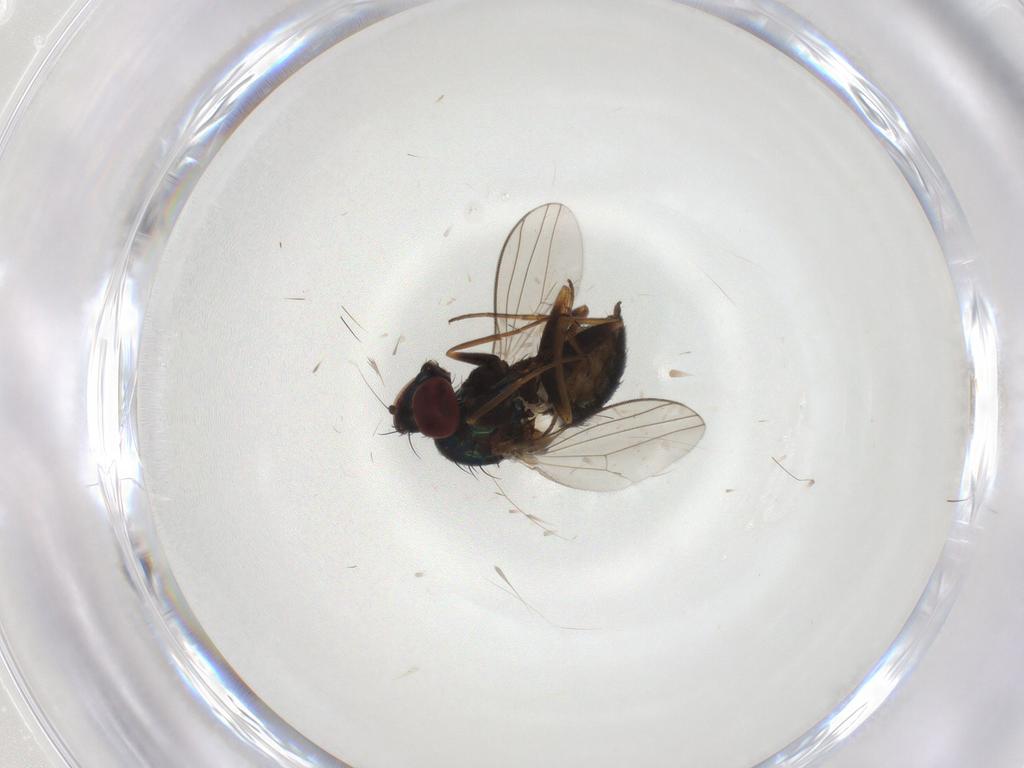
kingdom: Animalia
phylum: Arthropoda
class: Insecta
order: Diptera
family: Dolichopodidae
